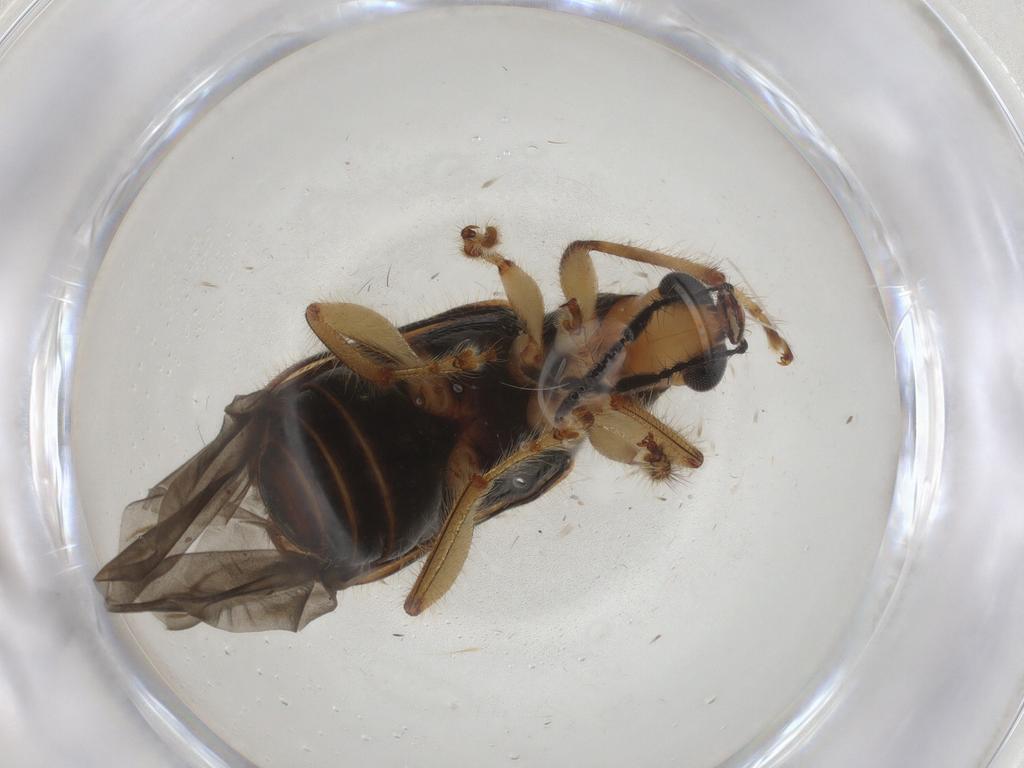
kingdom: Animalia
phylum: Arthropoda
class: Insecta
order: Coleoptera
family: Attelabidae
